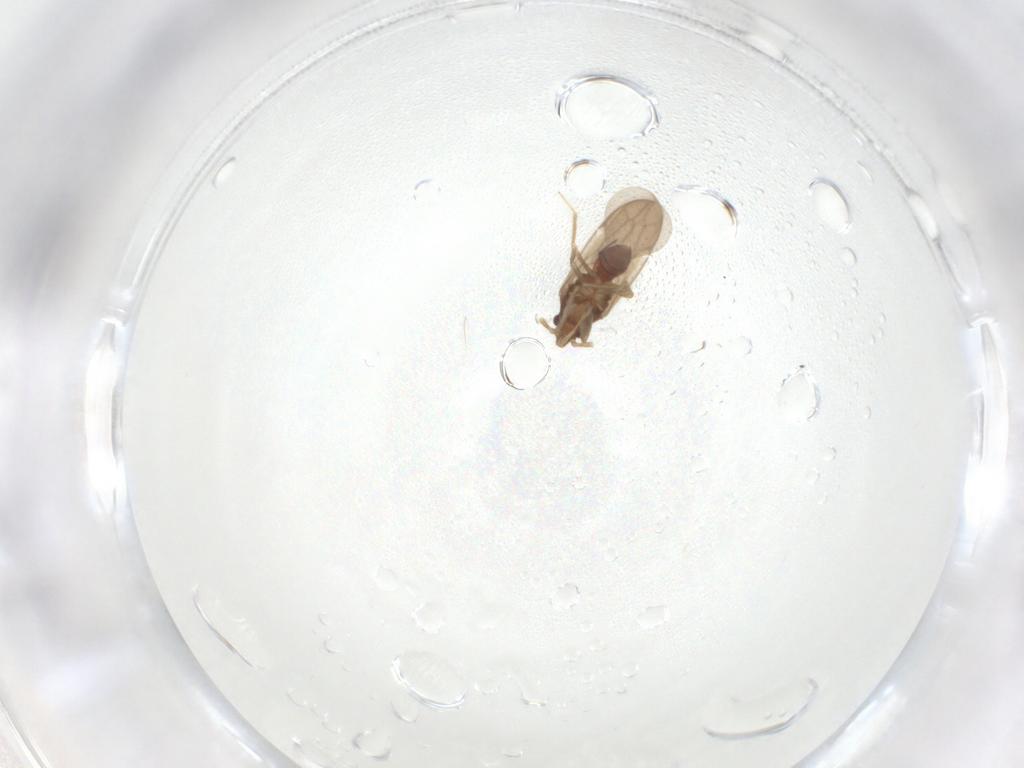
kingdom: Animalia
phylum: Arthropoda
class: Insecta
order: Hemiptera
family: Ceratocombidae
